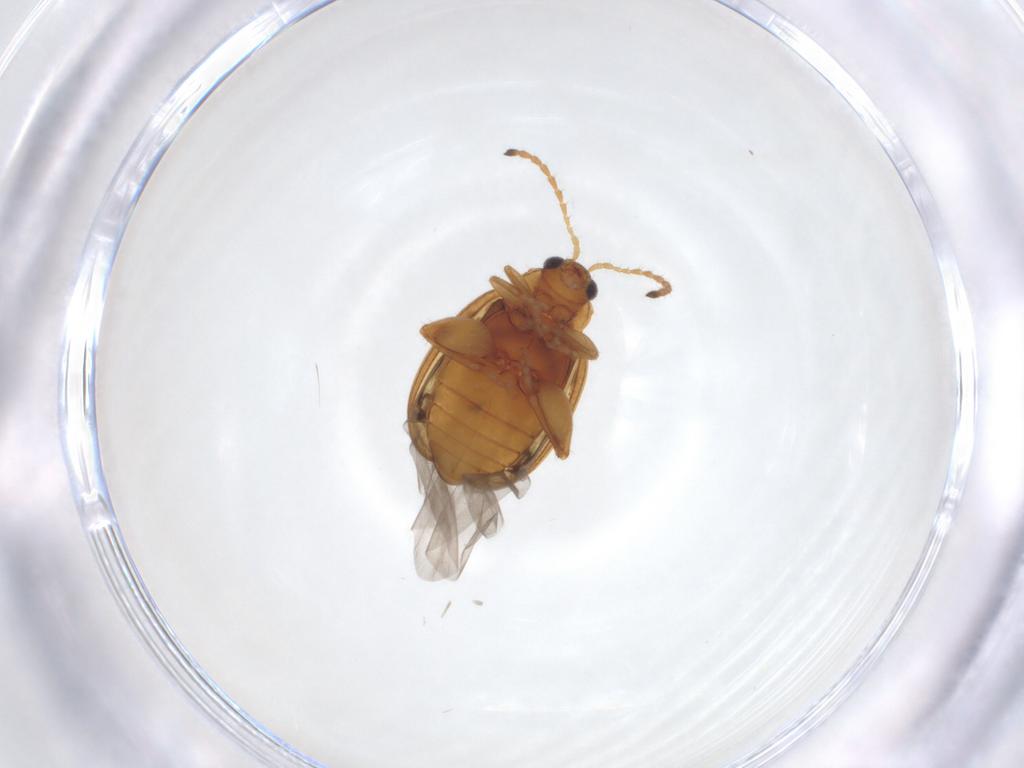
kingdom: Animalia
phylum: Arthropoda
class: Insecta
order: Coleoptera
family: Chrysomelidae
